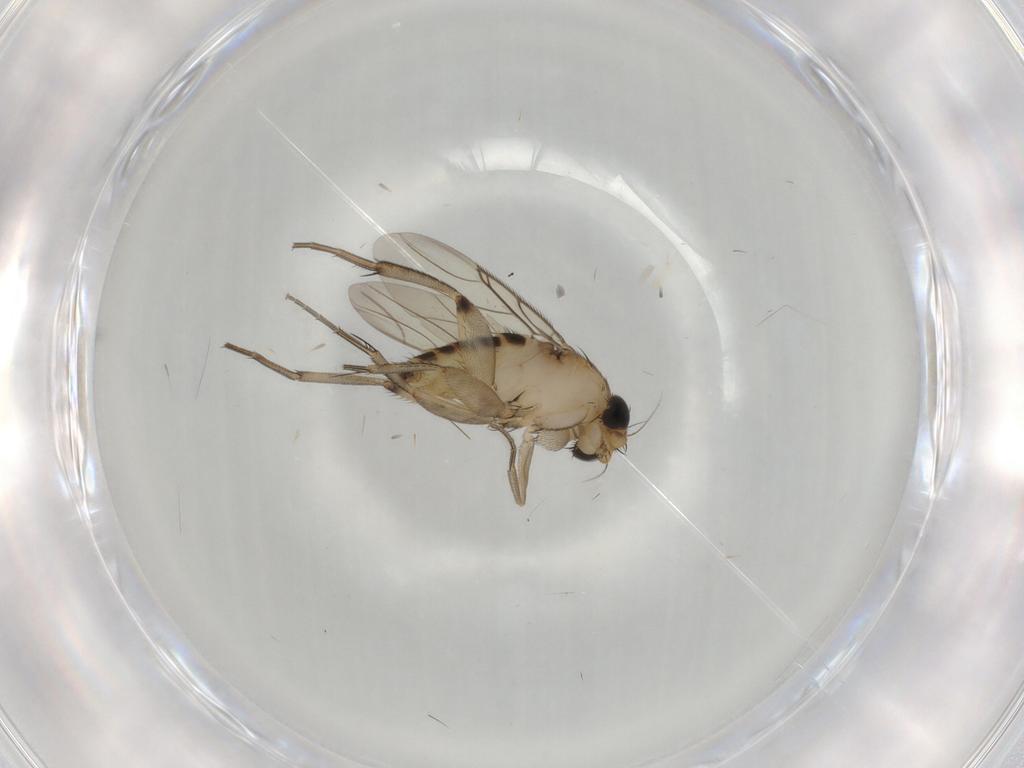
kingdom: Animalia
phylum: Arthropoda
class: Insecta
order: Diptera
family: Phoridae
